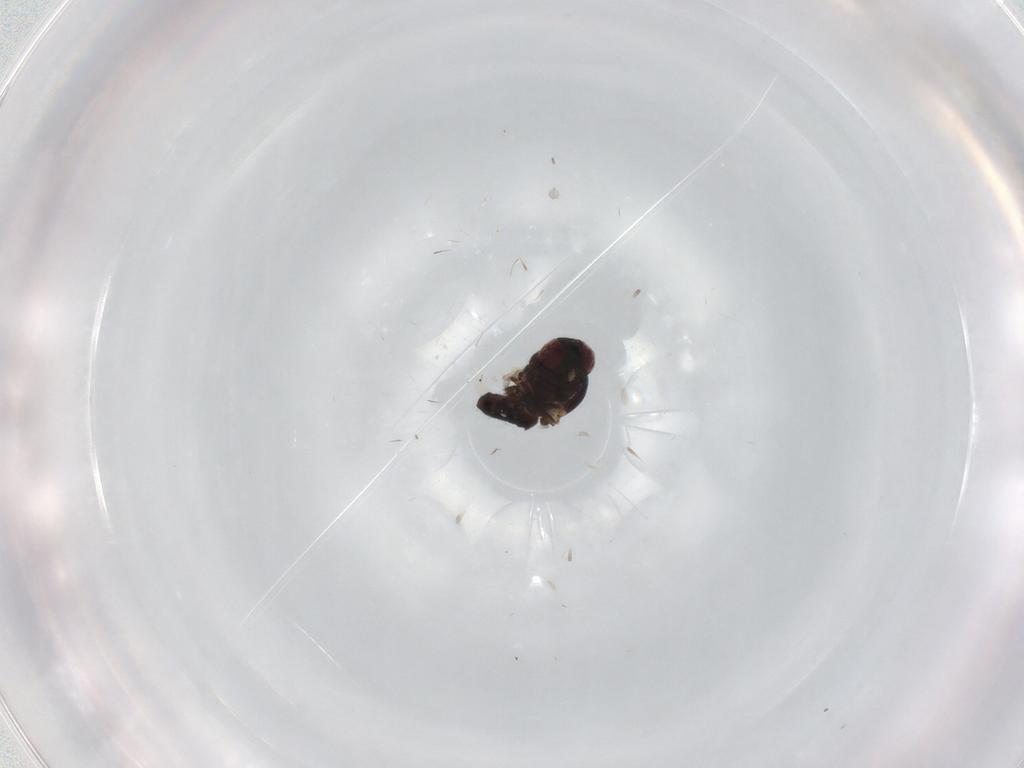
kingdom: Animalia
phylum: Arthropoda
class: Insecta
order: Diptera
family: Agromyzidae
